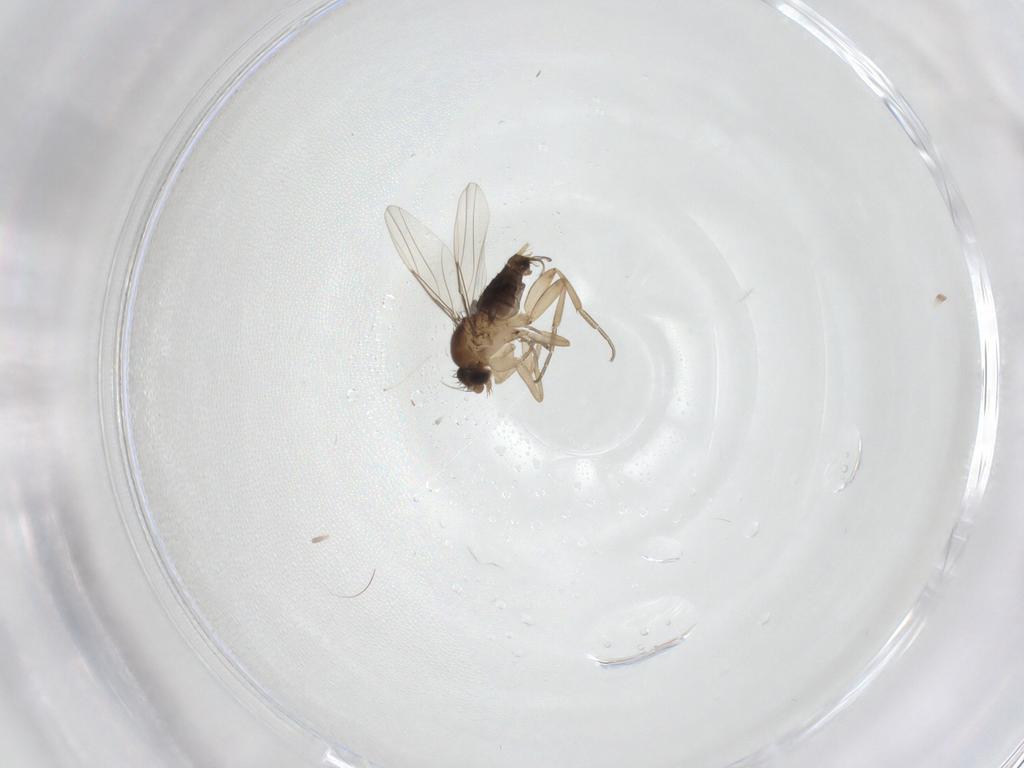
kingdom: Animalia
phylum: Arthropoda
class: Insecta
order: Diptera
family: Phoridae
